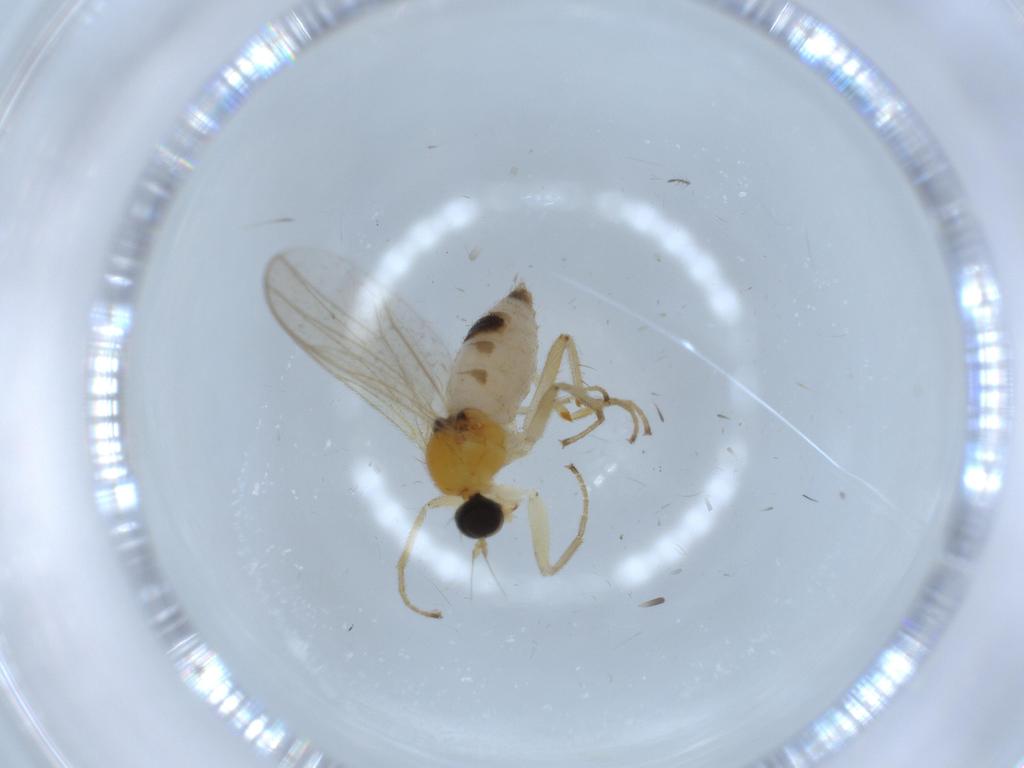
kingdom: Animalia
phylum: Arthropoda
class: Insecta
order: Diptera
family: Hybotidae
